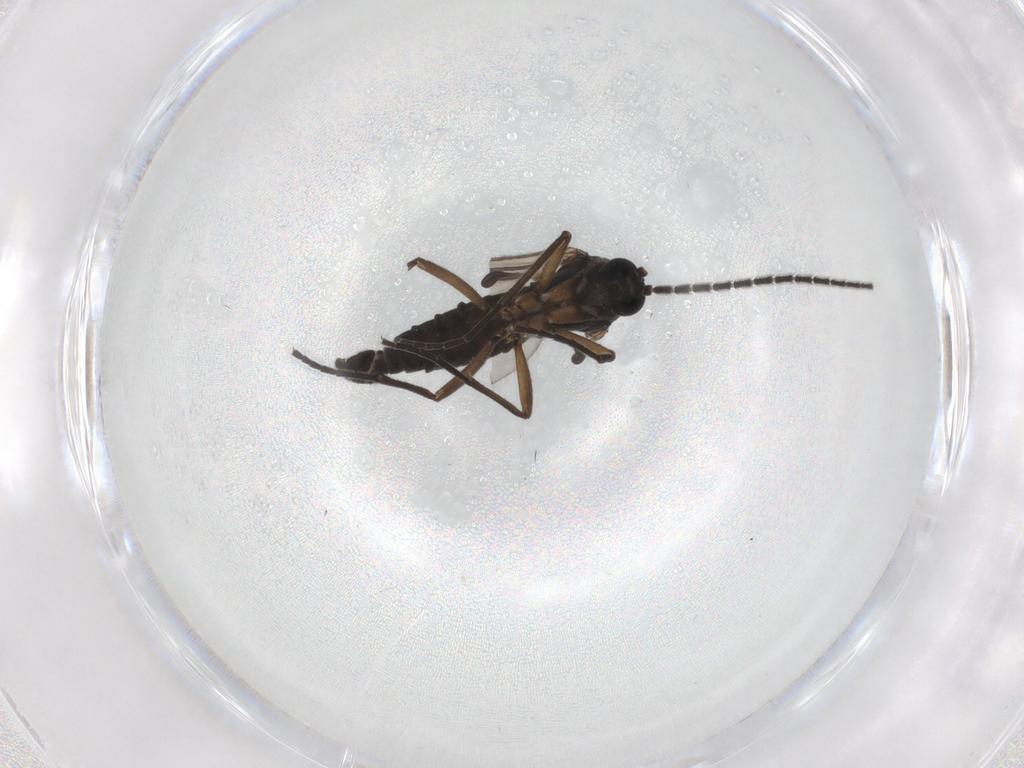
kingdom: Animalia
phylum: Arthropoda
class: Insecta
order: Diptera
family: Sciaridae
